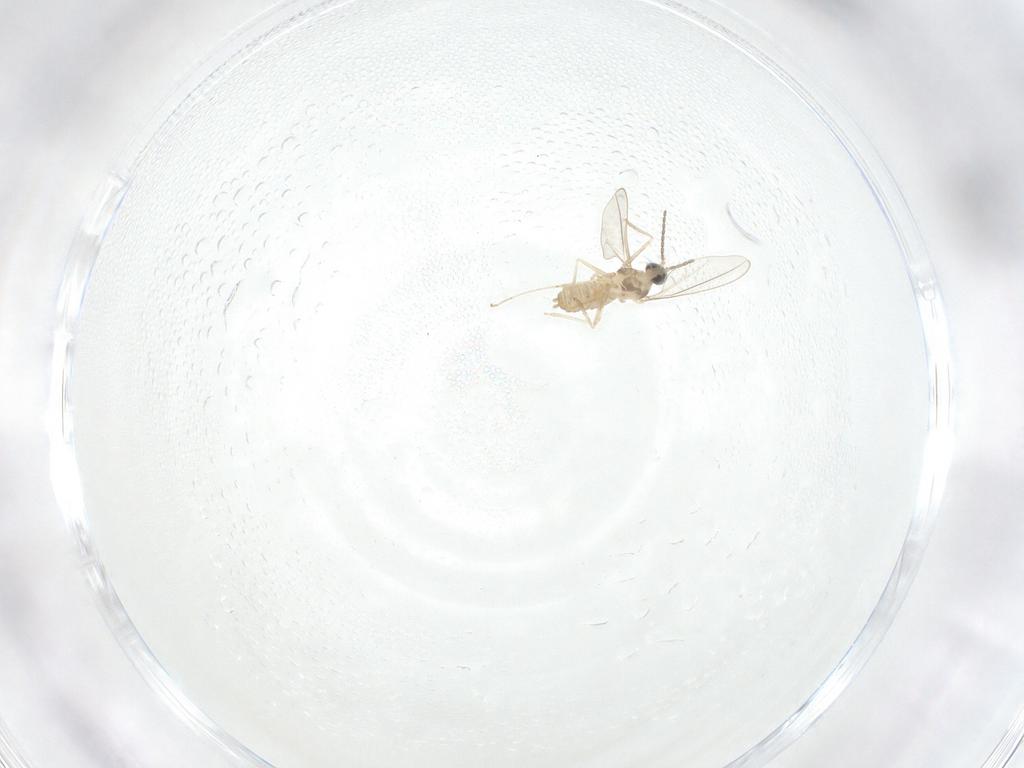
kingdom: Animalia
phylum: Arthropoda
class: Insecta
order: Diptera
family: Cecidomyiidae
